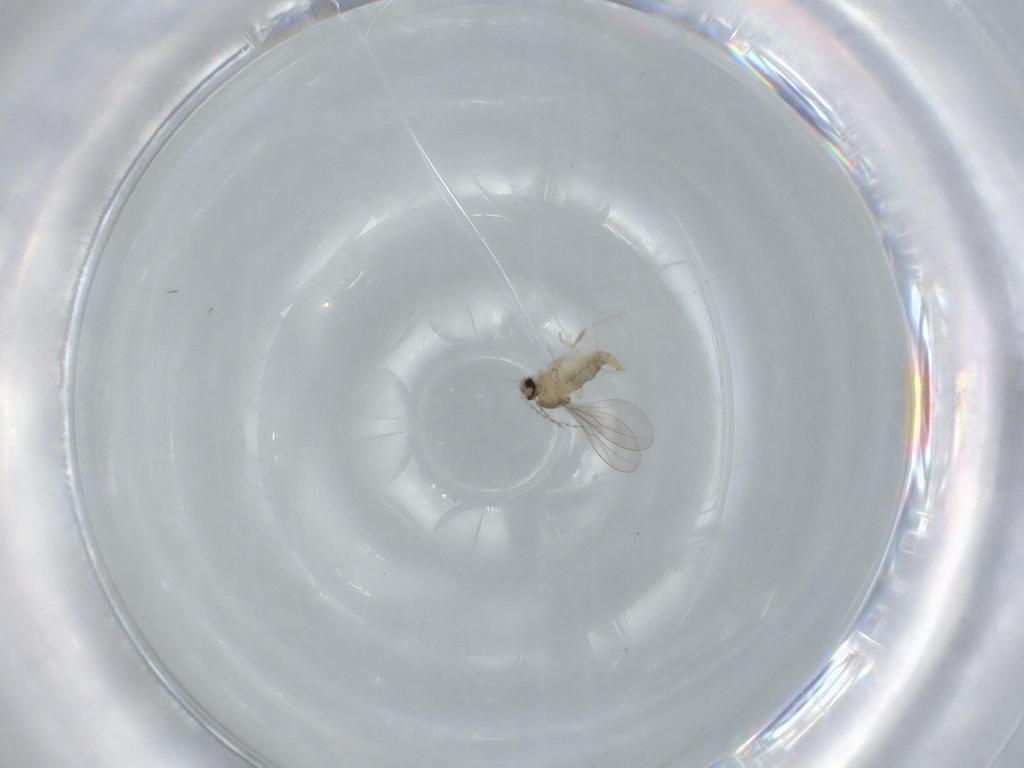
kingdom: Animalia
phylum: Arthropoda
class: Insecta
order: Diptera
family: Cecidomyiidae
